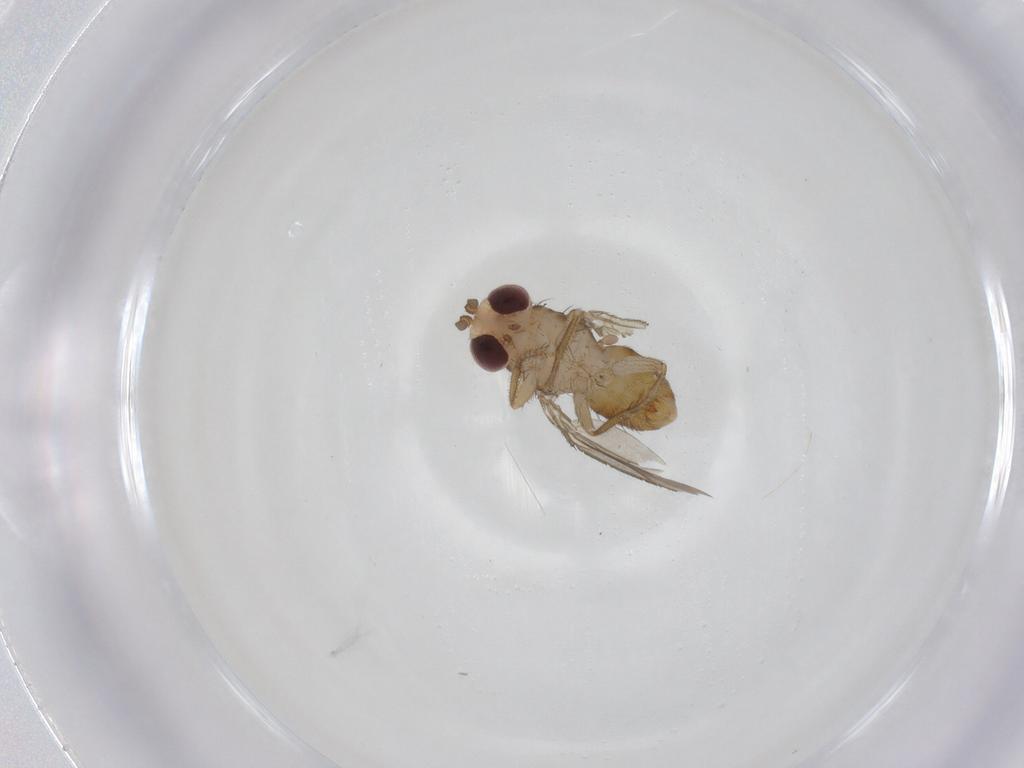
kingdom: Animalia
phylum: Arthropoda
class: Insecta
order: Diptera
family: Drosophilidae
